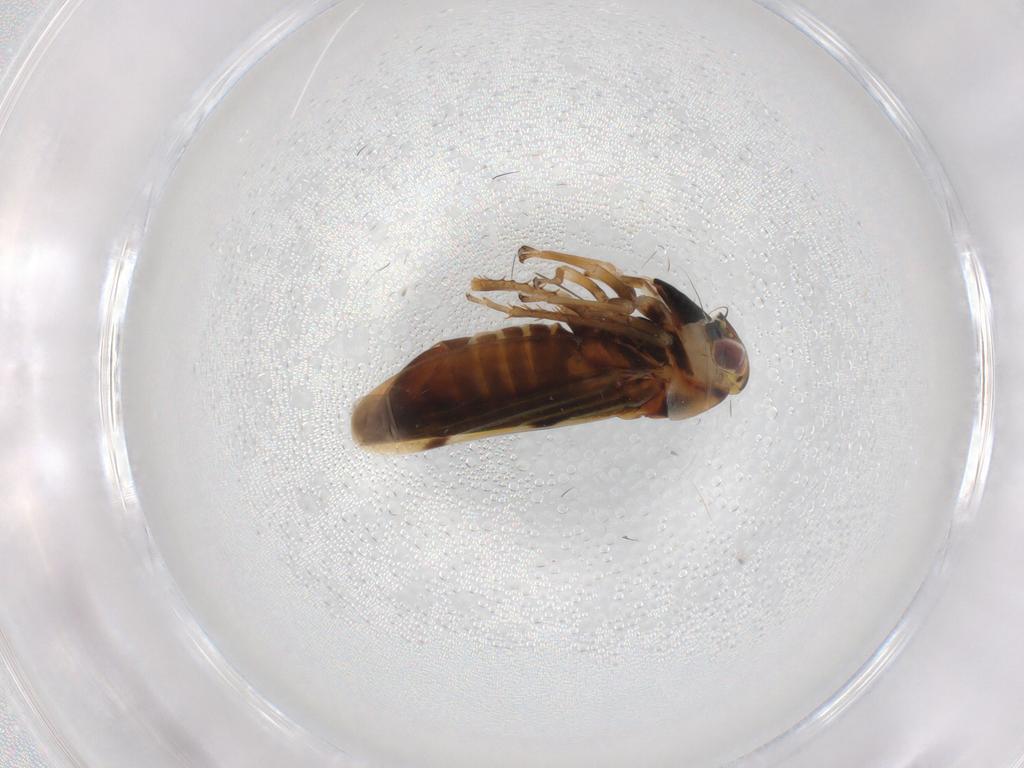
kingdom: Animalia
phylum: Arthropoda
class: Insecta
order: Hemiptera
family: Cicadellidae
